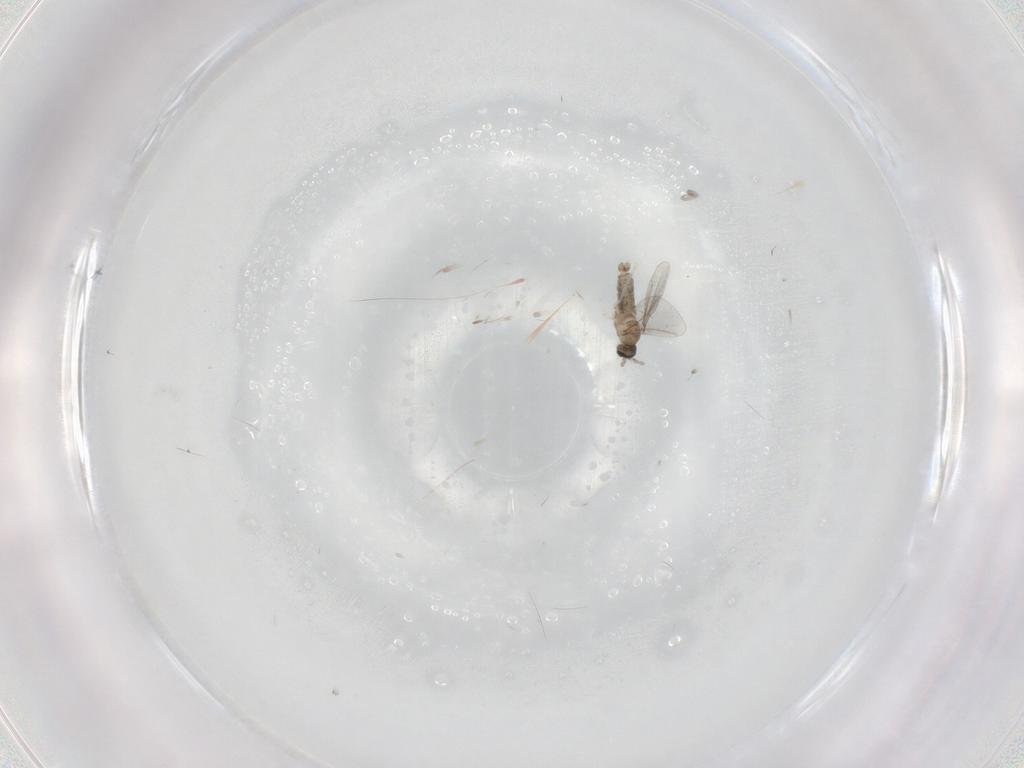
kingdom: Animalia
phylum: Arthropoda
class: Insecta
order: Diptera
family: Cecidomyiidae
